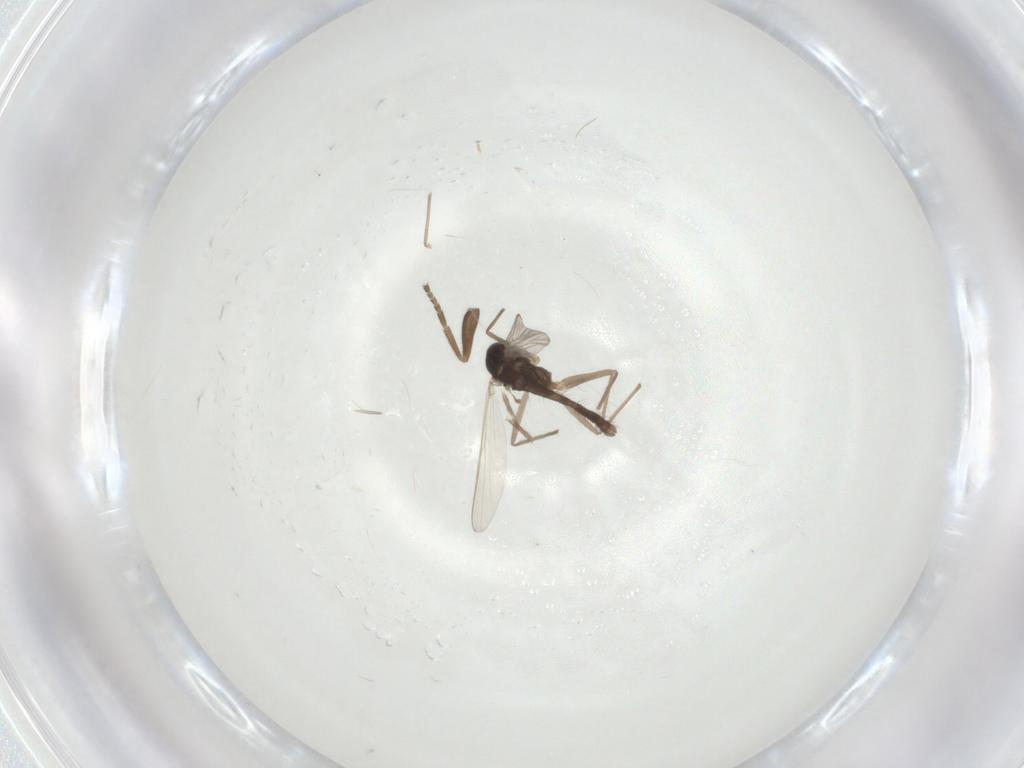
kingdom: Animalia
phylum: Arthropoda
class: Insecta
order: Diptera
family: Chironomidae
